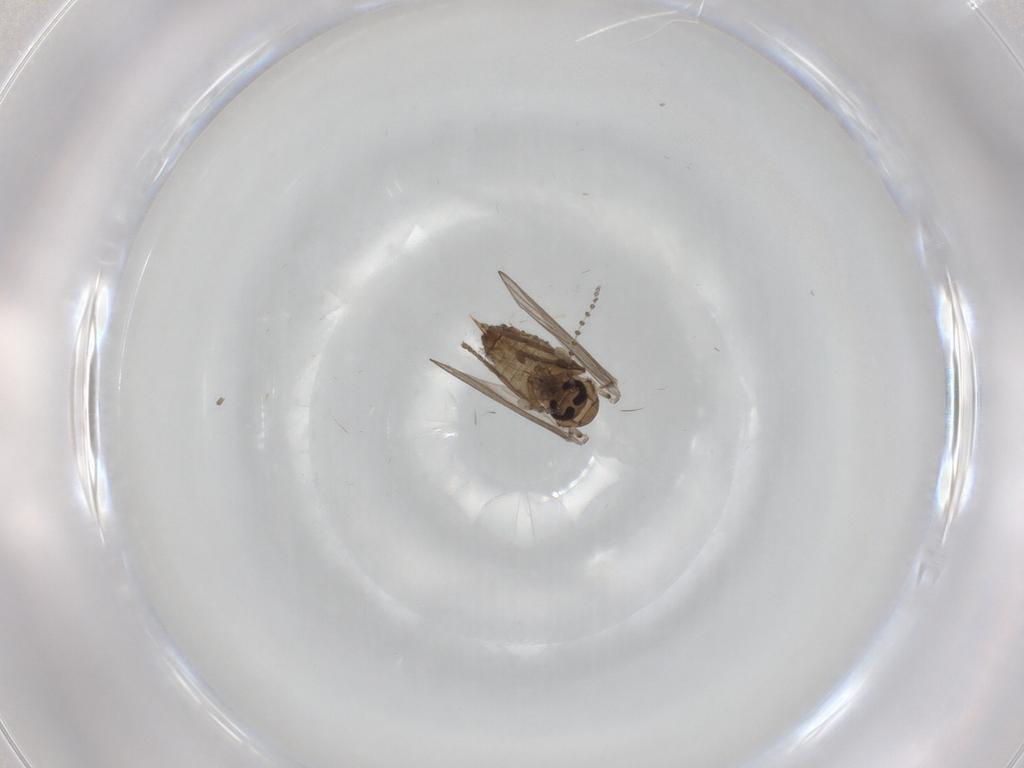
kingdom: Animalia
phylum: Arthropoda
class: Insecta
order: Diptera
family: Psychodidae
